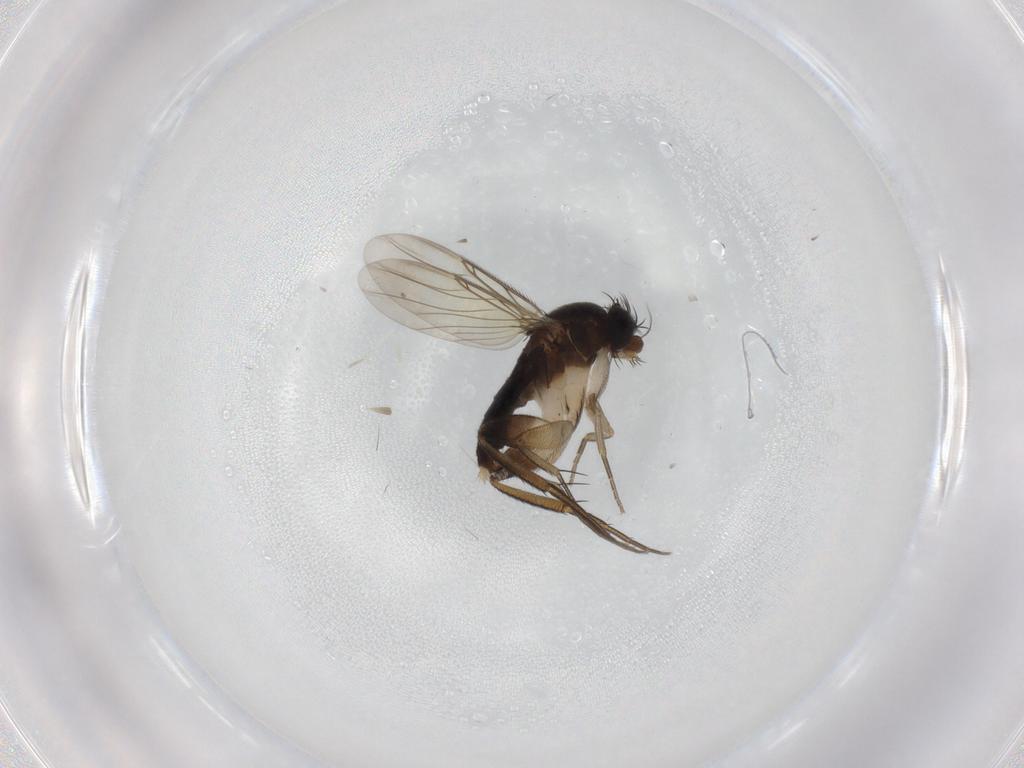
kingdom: Animalia
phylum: Arthropoda
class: Insecta
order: Diptera
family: Phoridae
